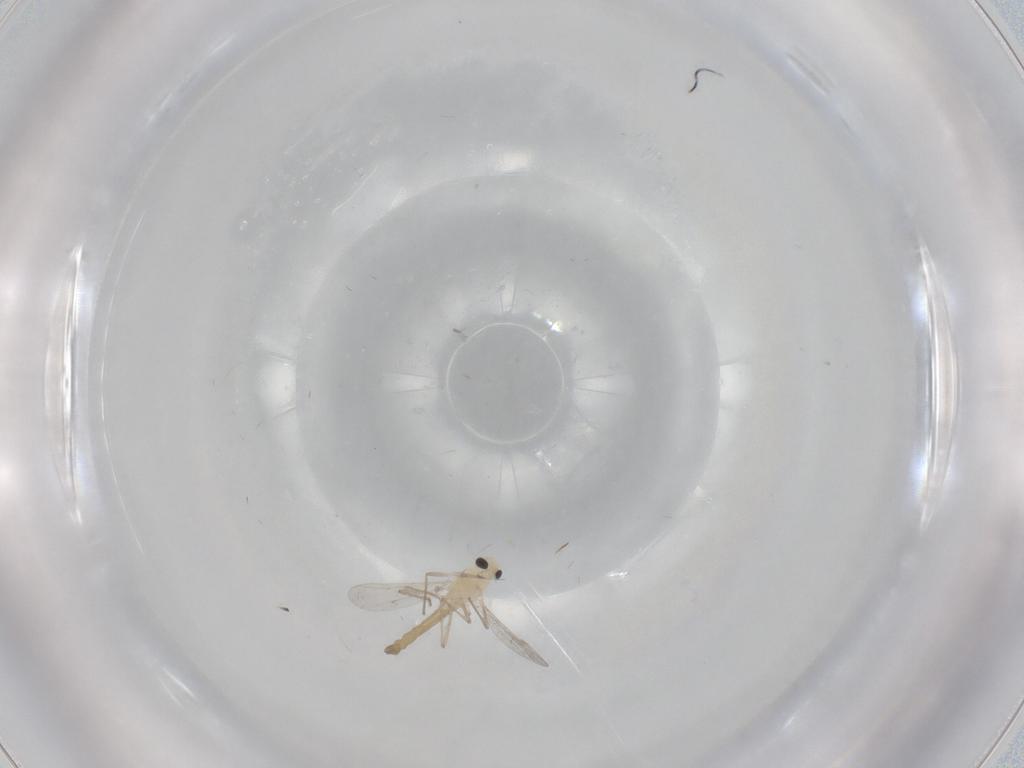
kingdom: Animalia
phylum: Arthropoda
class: Insecta
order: Diptera
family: Chironomidae
